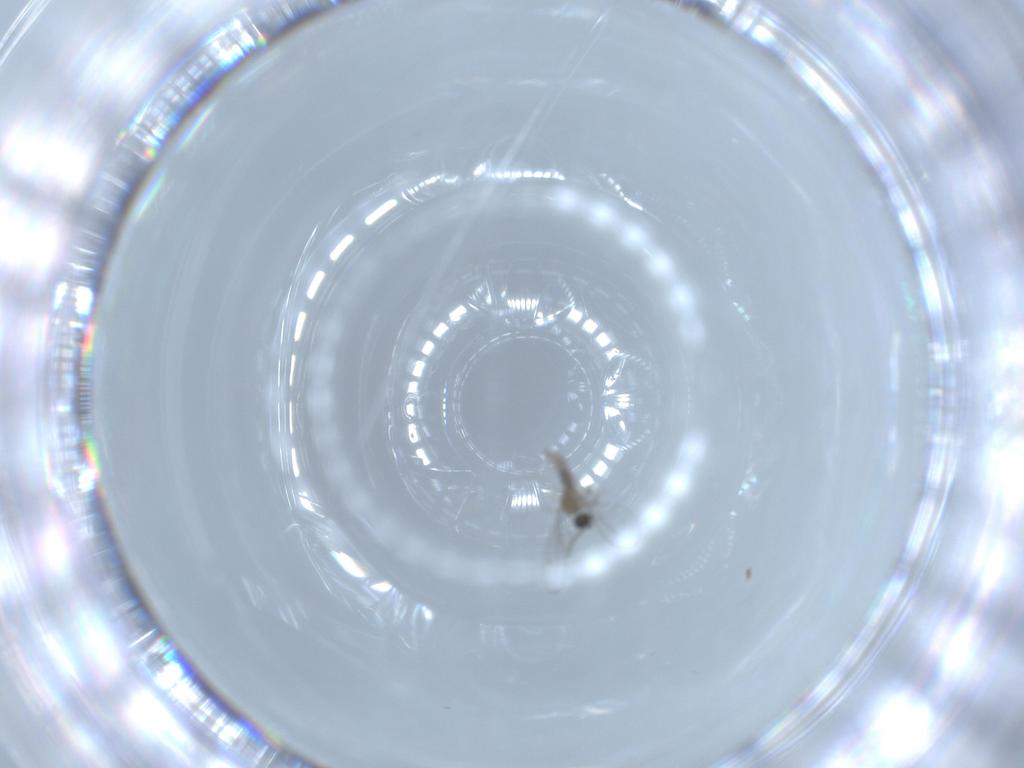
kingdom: Animalia
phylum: Arthropoda
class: Insecta
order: Diptera
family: Cecidomyiidae
